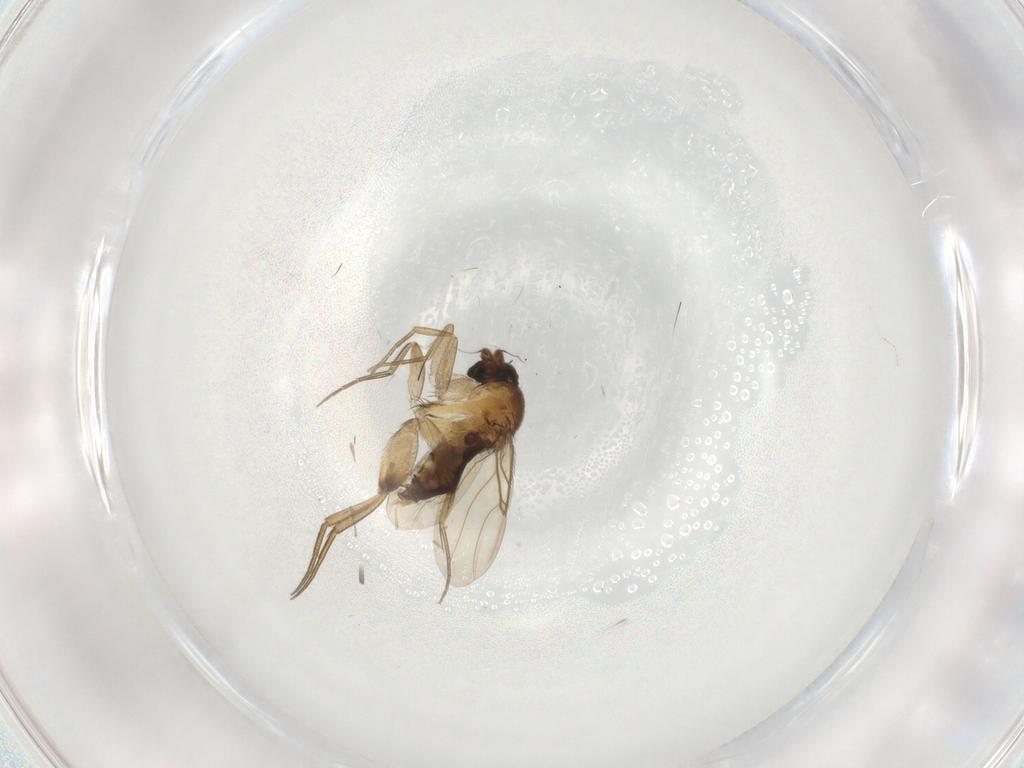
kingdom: Animalia
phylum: Arthropoda
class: Insecta
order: Diptera
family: Phoridae
